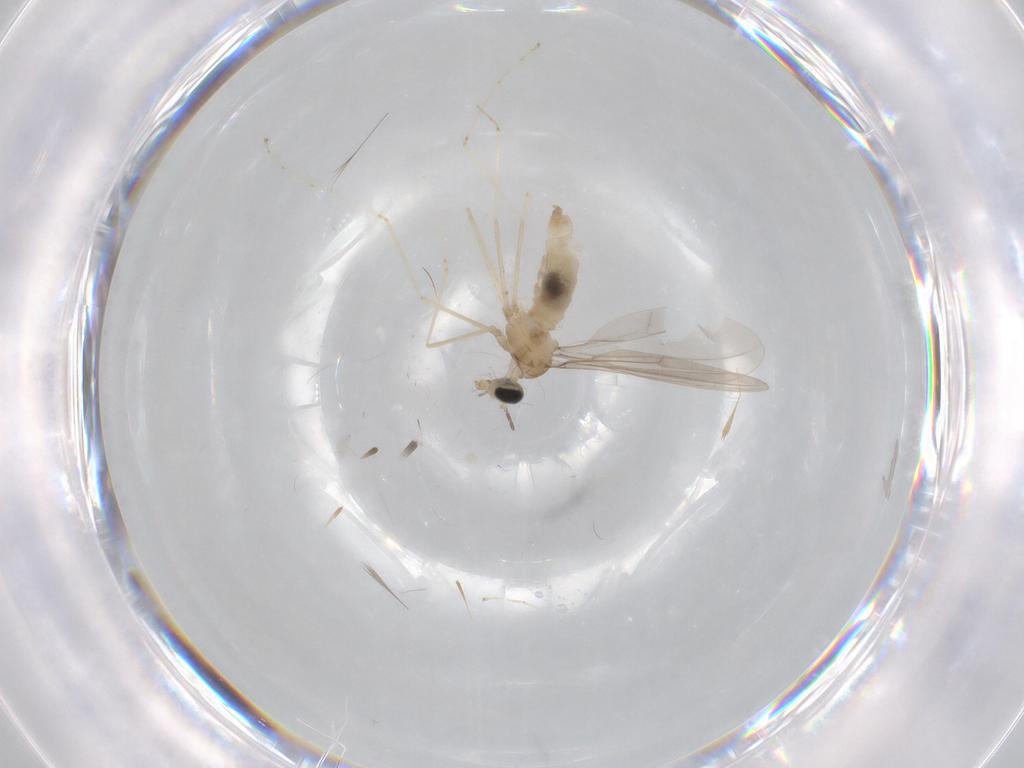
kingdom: Animalia
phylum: Arthropoda
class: Insecta
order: Diptera
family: Cecidomyiidae
